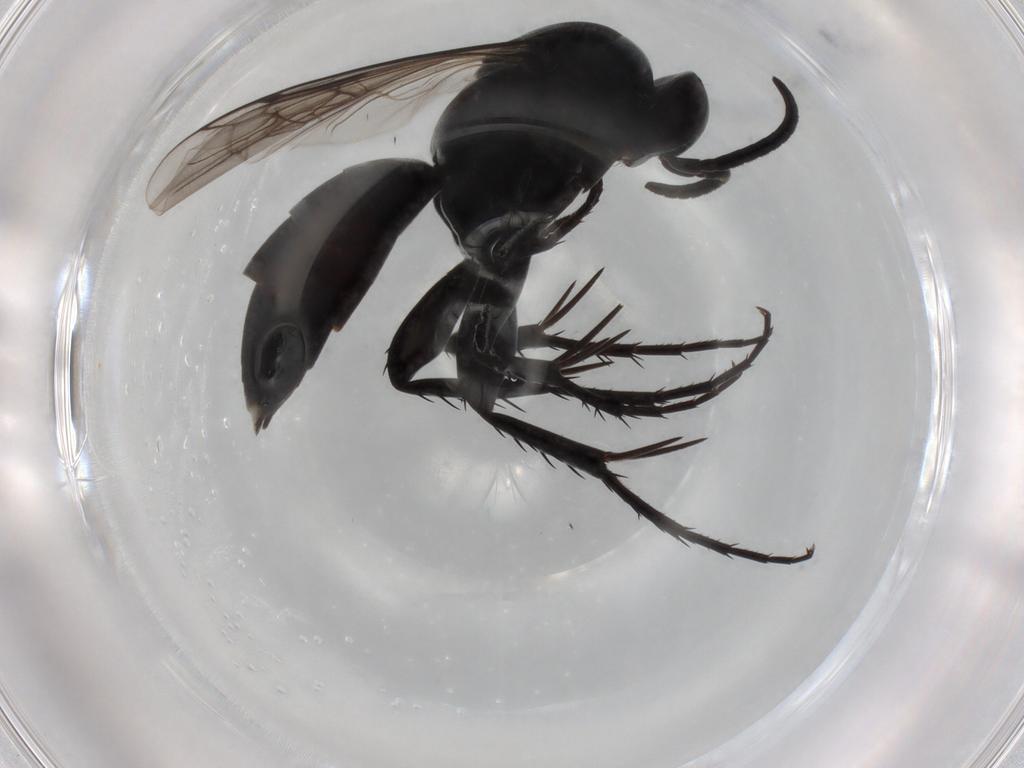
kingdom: Animalia
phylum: Arthropoda
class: Insecta
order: Hymenoptera
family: Pompilidae
